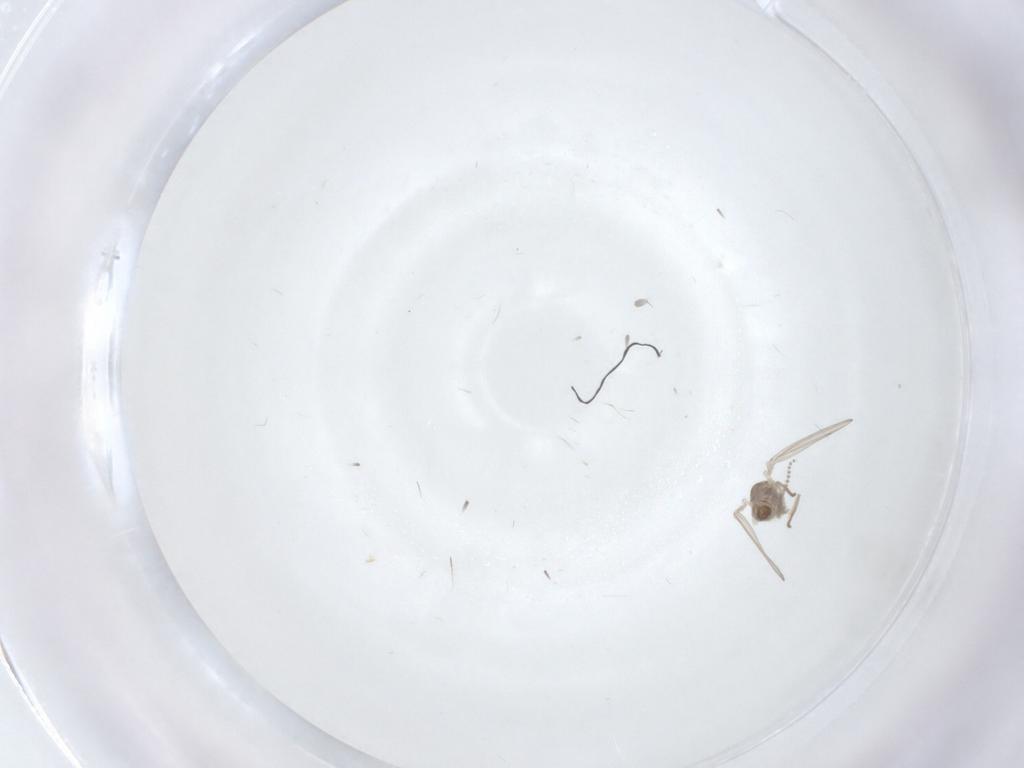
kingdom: Animalia
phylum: Arthropoda
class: Insecta
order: Diptera
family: Psychodidae
